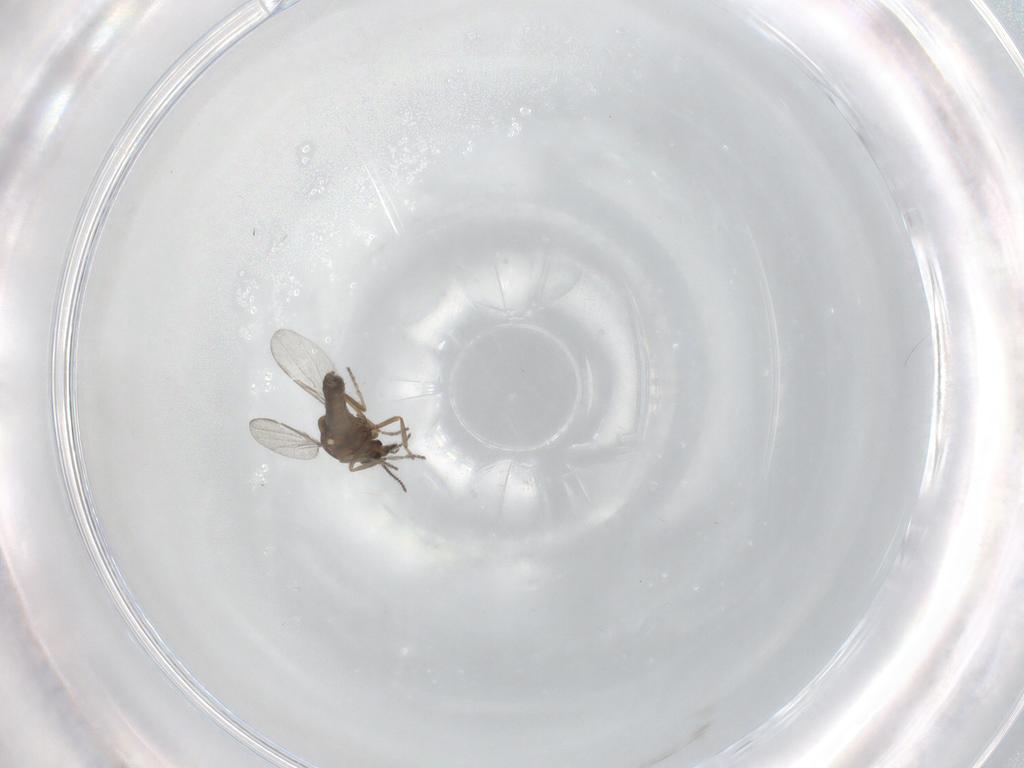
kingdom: Animalia
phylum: Arthropoda
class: Insecta
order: Diptera
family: Ceratopogonidae
